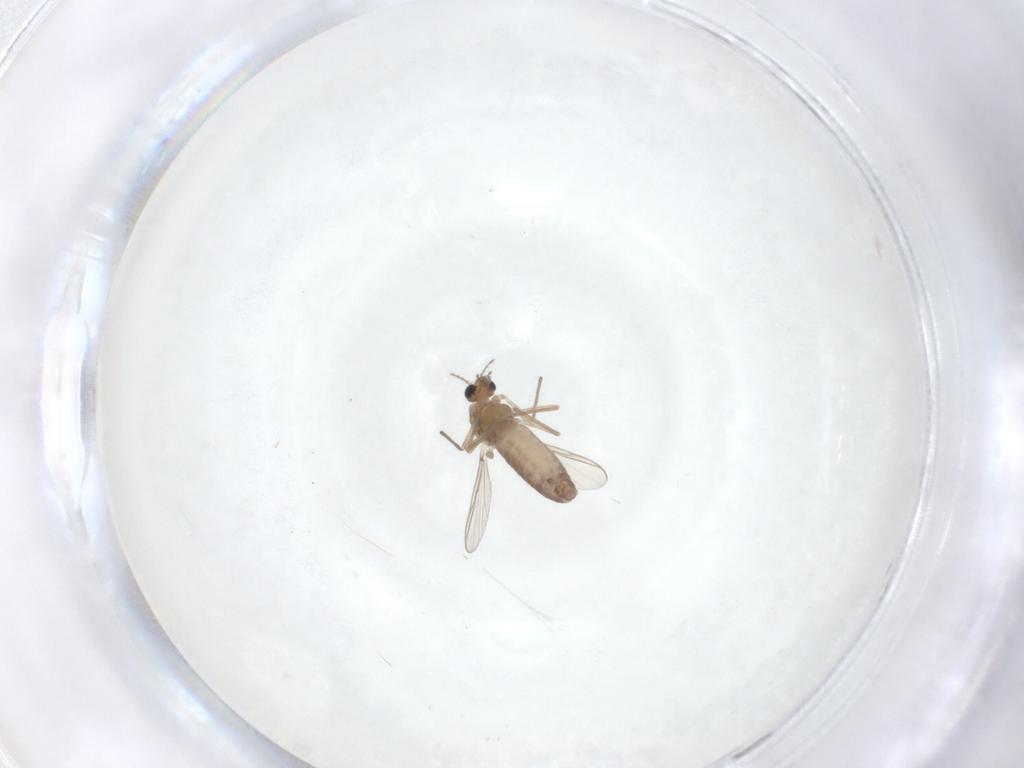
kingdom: Animalia
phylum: Arthropoda
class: Insecta
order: Diptera
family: Chironomidae
